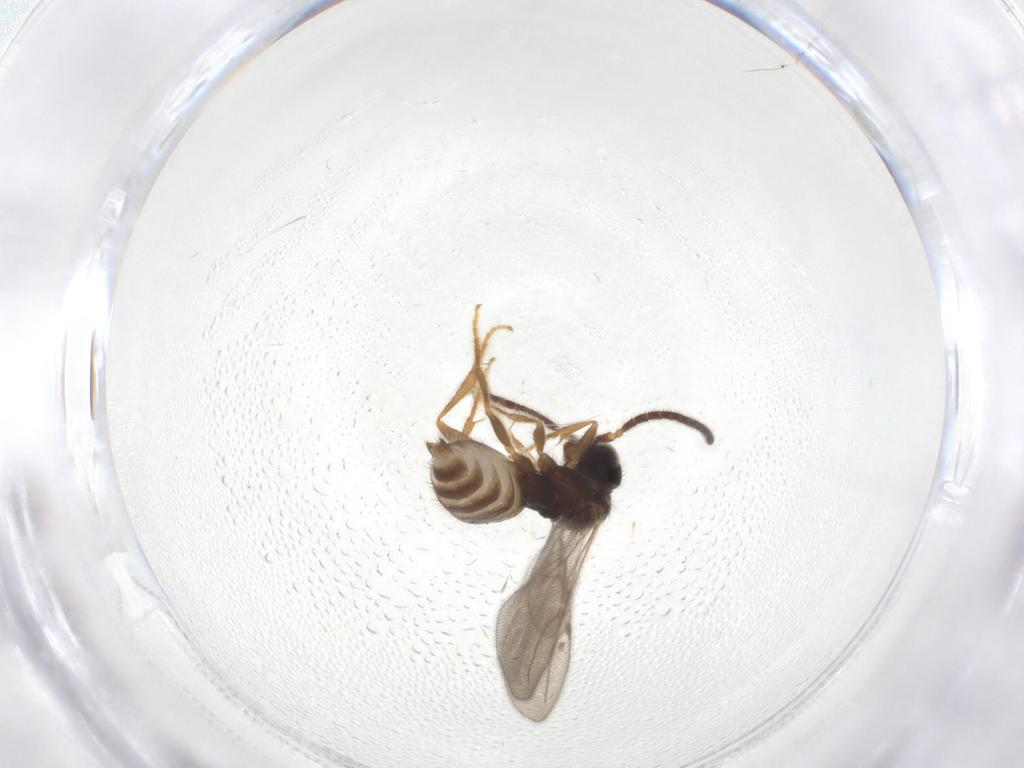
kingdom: Animalia
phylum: Arthropoda
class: Insecta
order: Hymenoptera
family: Bethylidae
